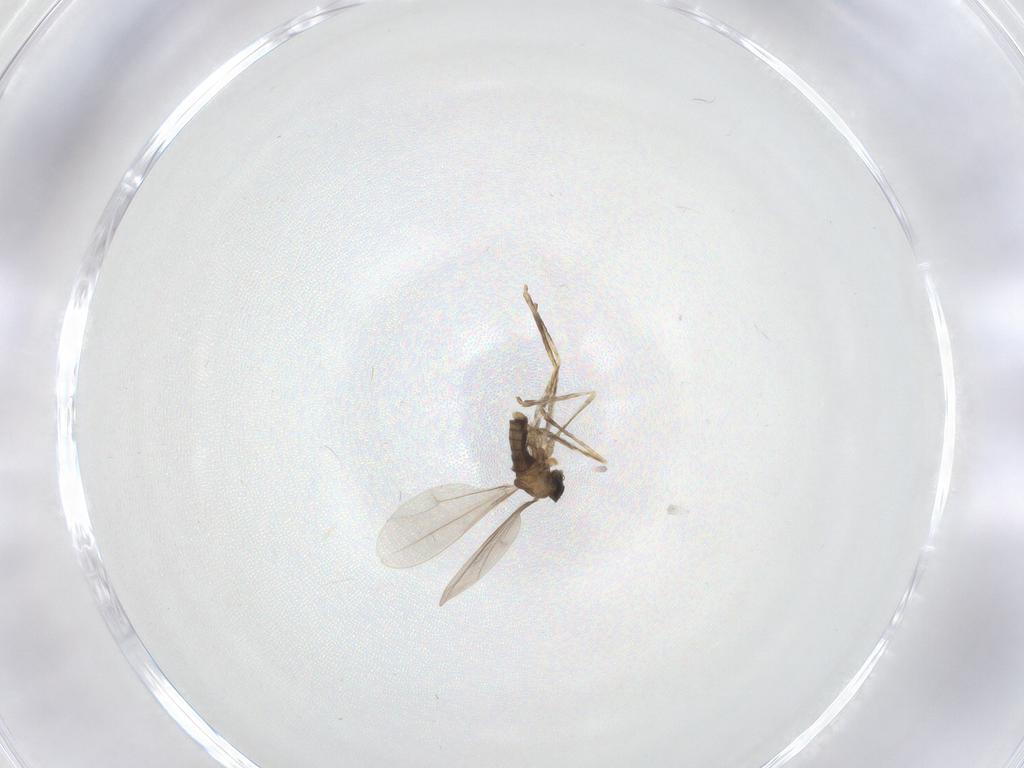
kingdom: Animalia
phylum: Arthropoda
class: Insecta
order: Diptera
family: Cecidomyiidae
